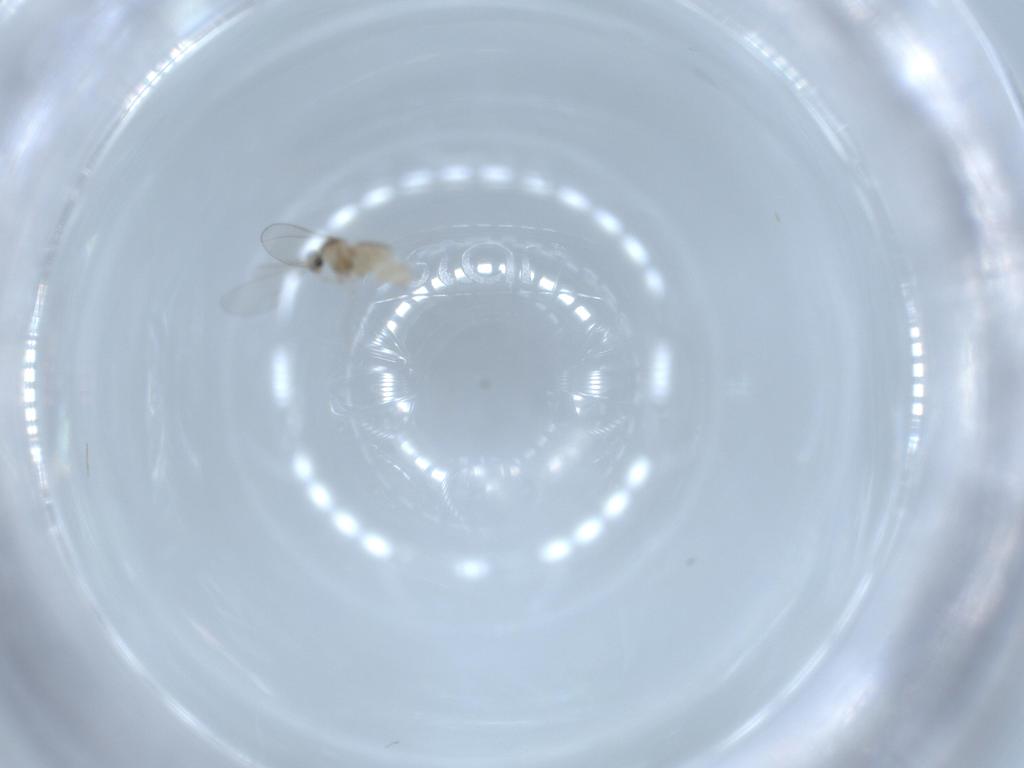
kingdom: Animalia
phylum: Arthropoda
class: Insecta
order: Diptera
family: Cecidomyiidae
